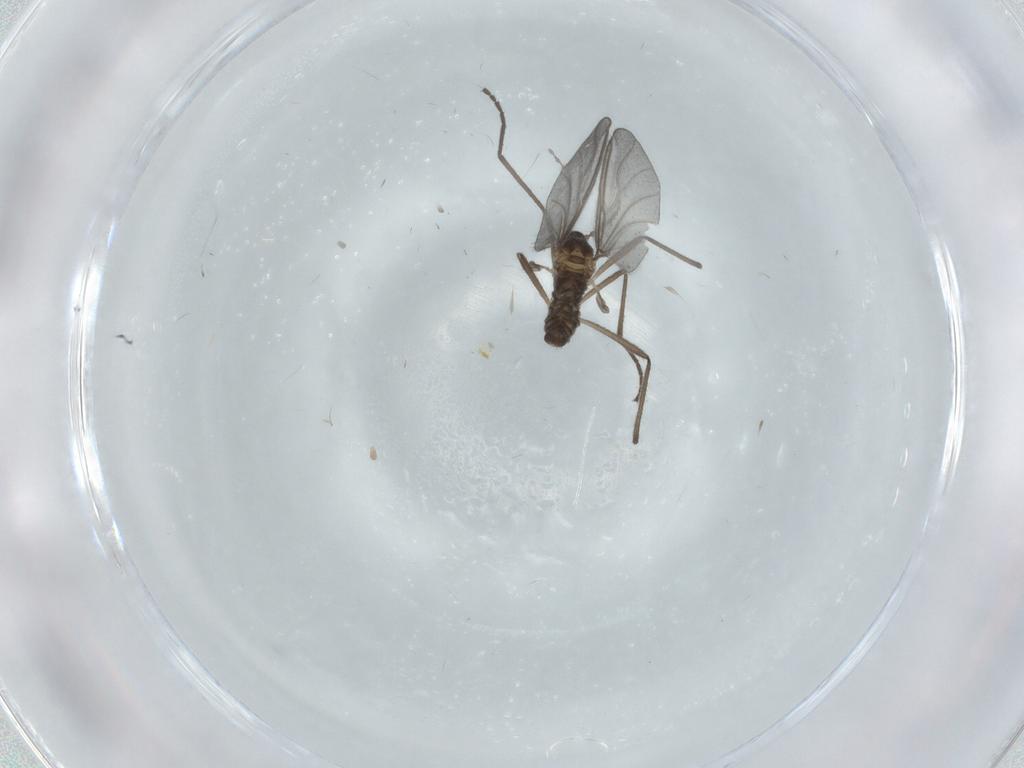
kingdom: Animalia
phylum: Arthropoda
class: Insecta
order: Diptera
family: Cecidomyiidae
